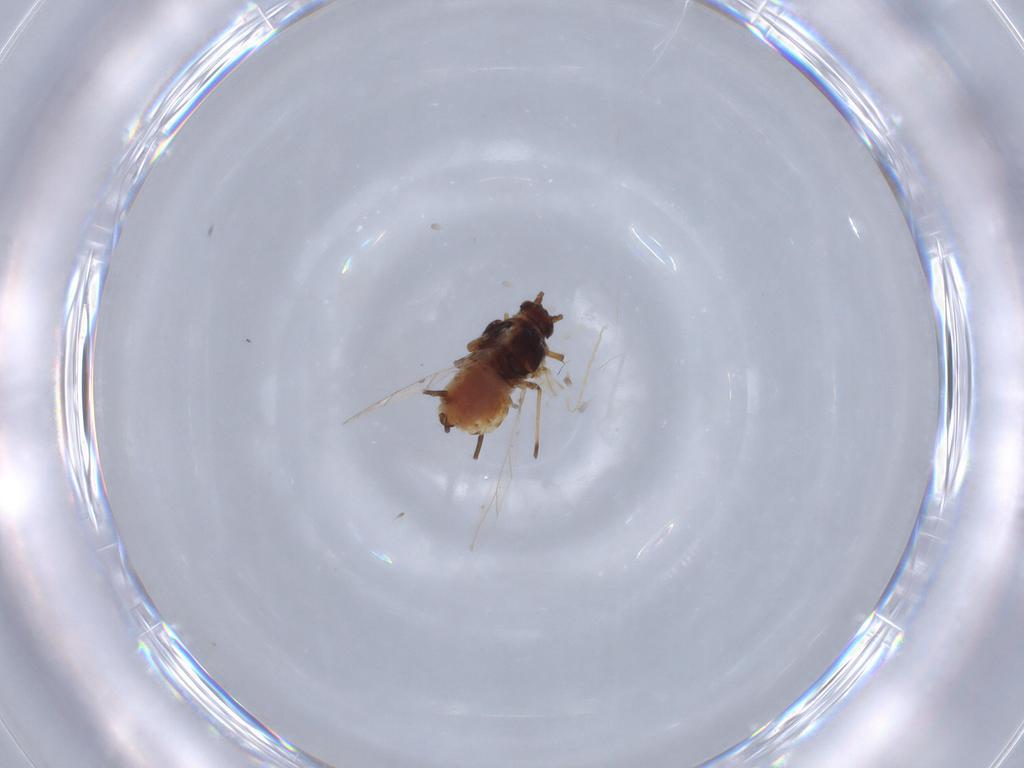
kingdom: Animalia
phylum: Arthropoda
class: Insecta
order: Hemiptera
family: Aphididae
